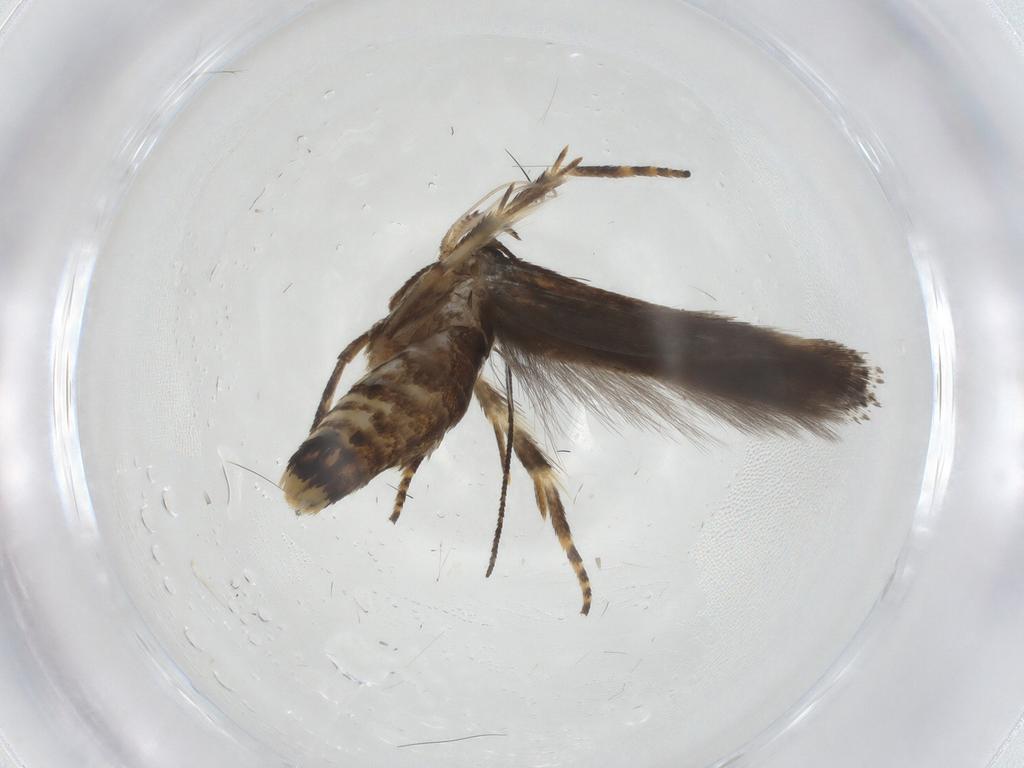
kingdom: Animalia
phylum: Arthropoda
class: Insecta
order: Lepidoptera
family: Momphidae
